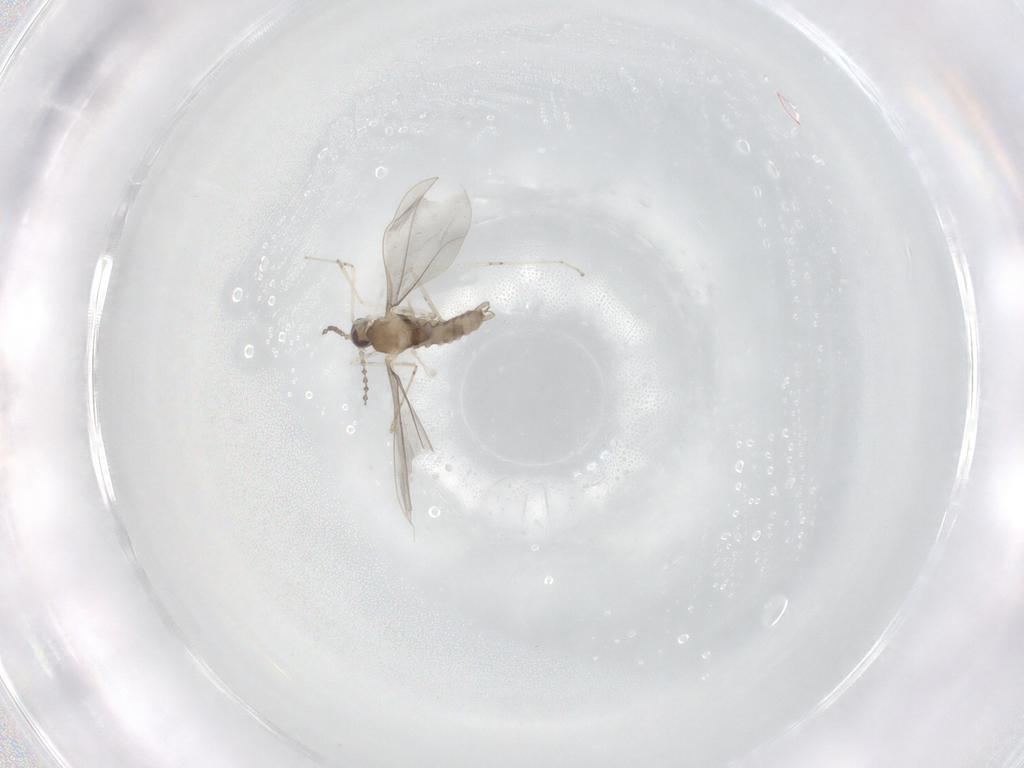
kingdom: Animalia
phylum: Arthropoda
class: Insecta
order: Diptera
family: Cecidomyiidae
